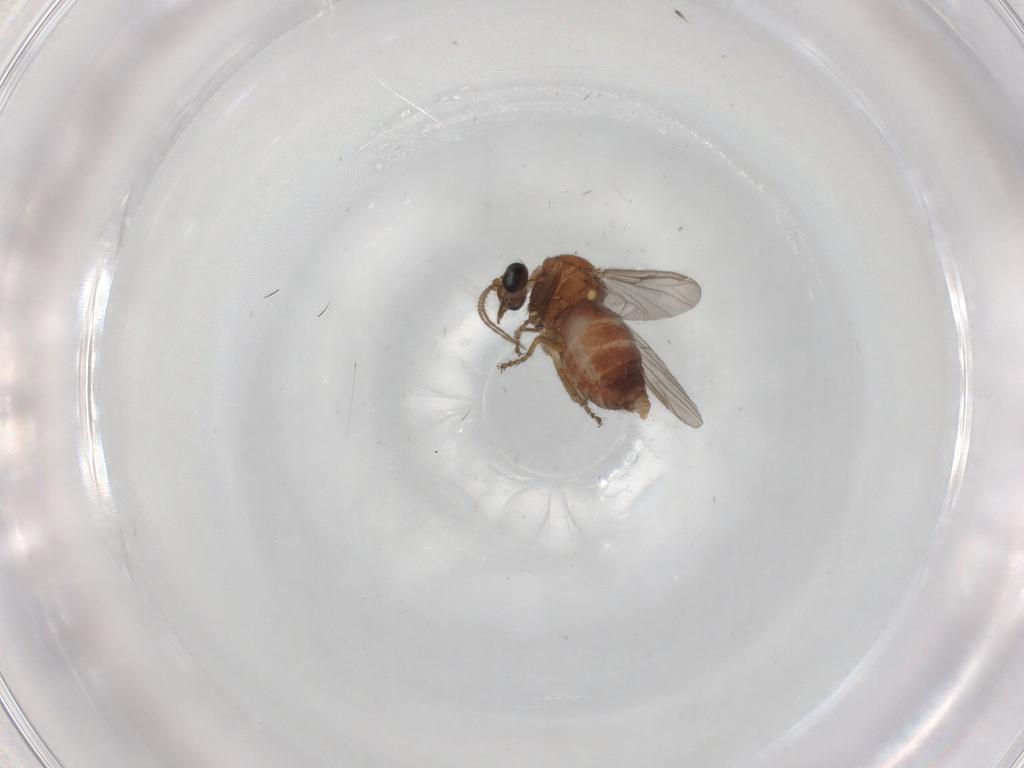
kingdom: Animalia
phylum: Arthropoda
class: Insecta
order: Diptera
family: Ceratopogonidae
